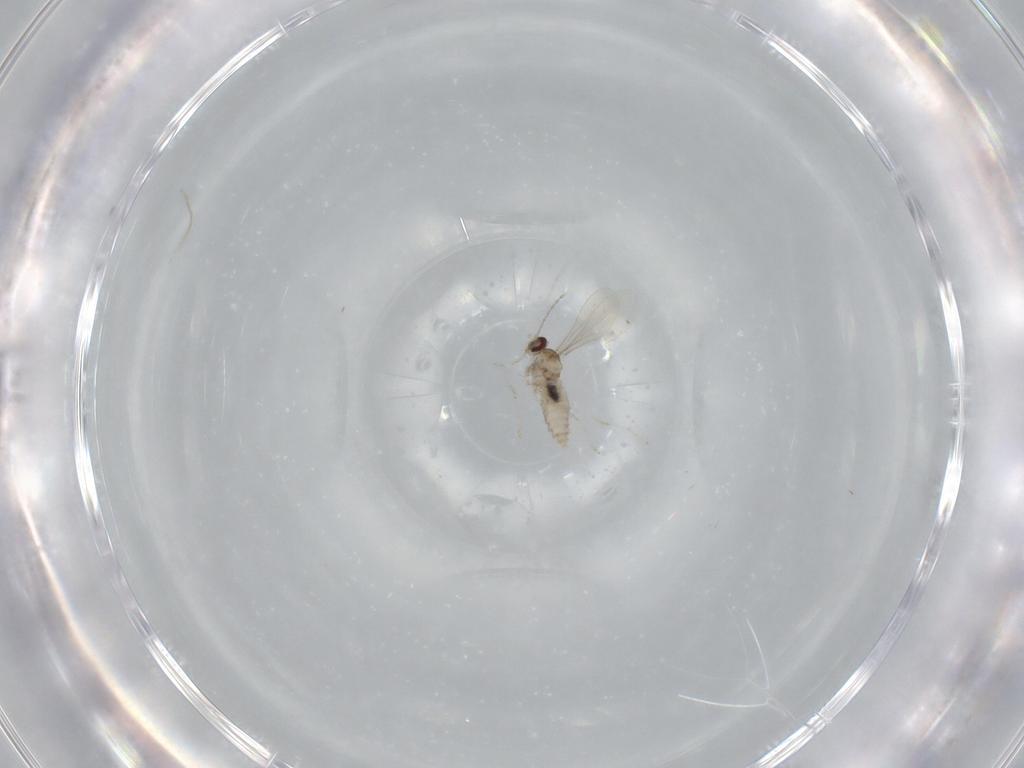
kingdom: Animalia
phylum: Arthropoda
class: Insecta
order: Diptera
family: Cecidomyiidae
